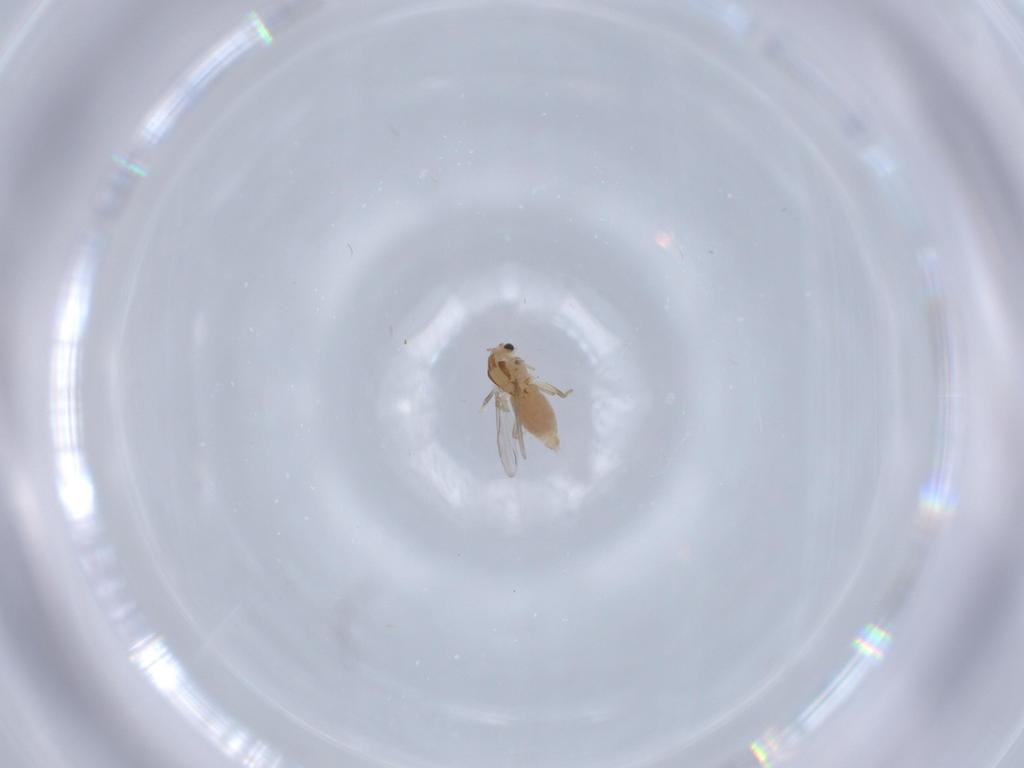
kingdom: Animalia
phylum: Arthropoda
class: Insecta
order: Diptera
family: Chironomidae
